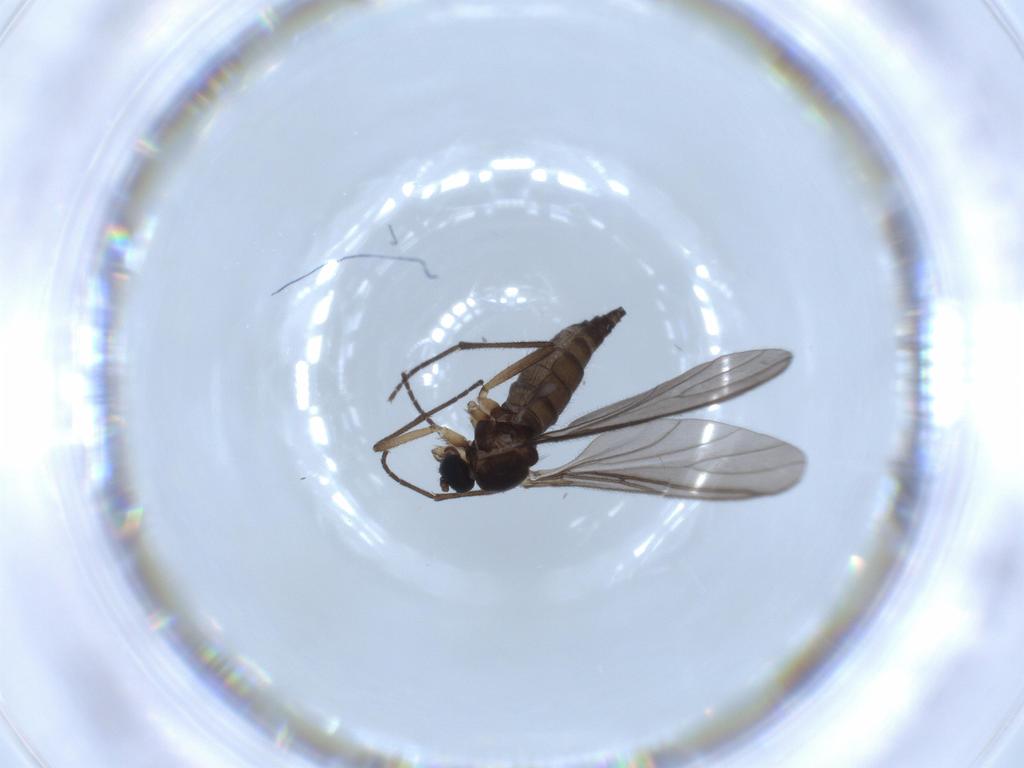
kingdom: Animalia
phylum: Arthropoda
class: Insecta
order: Diptera
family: Sciaridae
